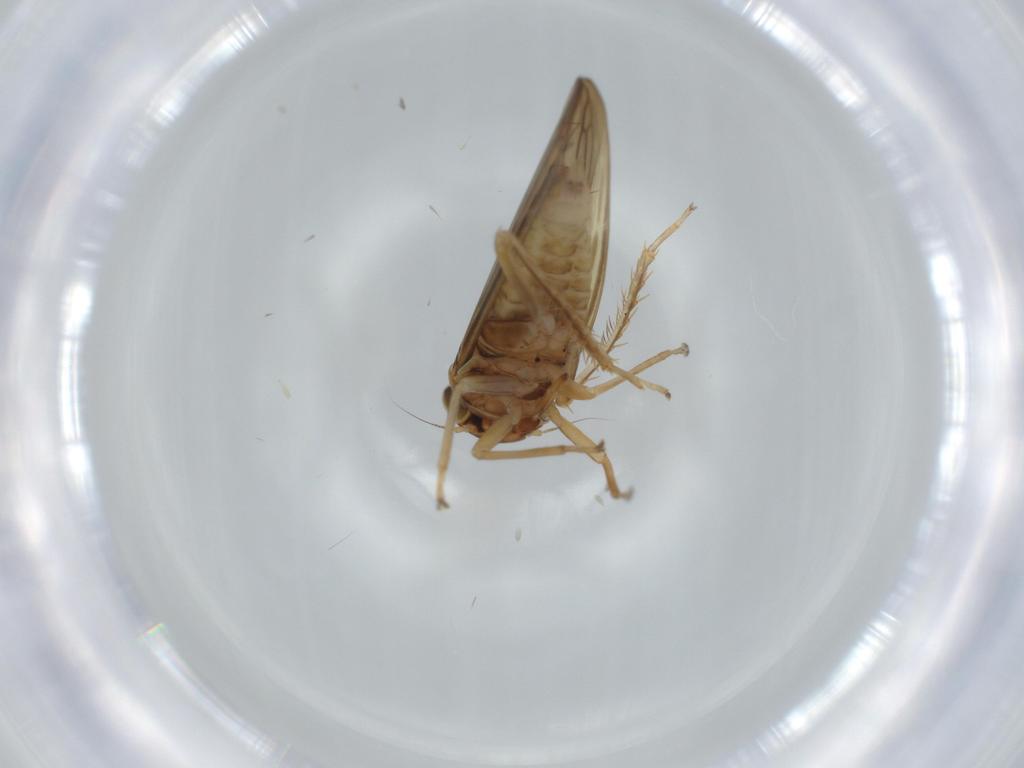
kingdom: Animalia
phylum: Arthropoda
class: Insecta
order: Hemiptera
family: Cicadellidae
